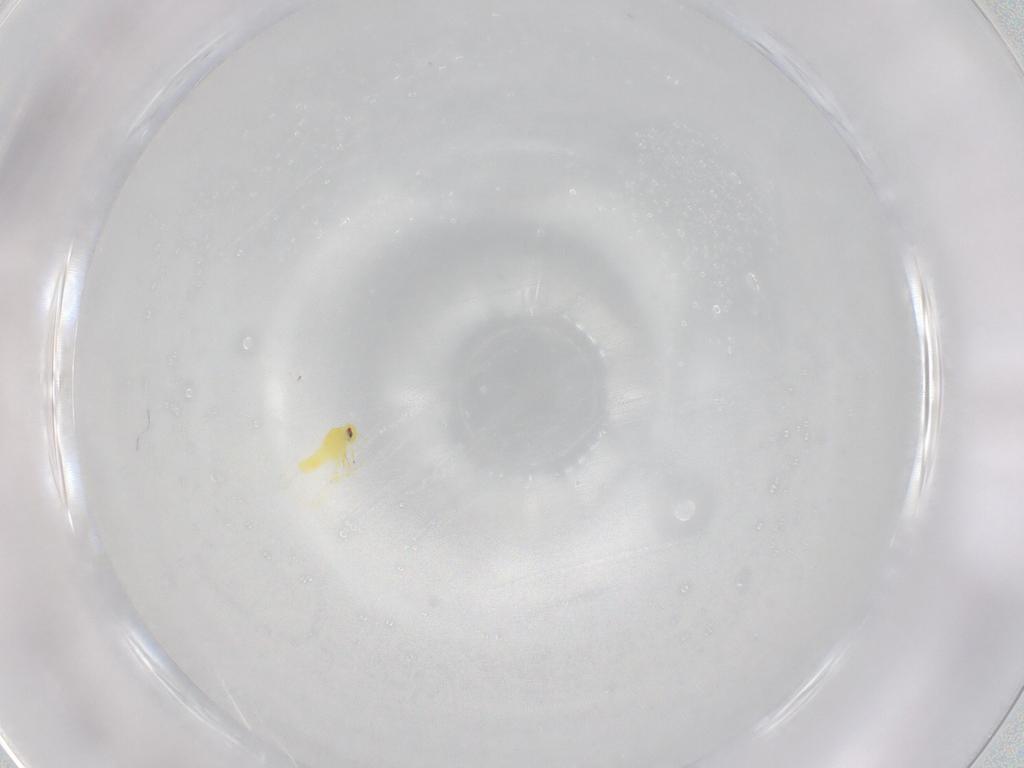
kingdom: Animalia
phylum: Arthropoda
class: Insecta
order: Hemiptera
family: Aleyrodidae
